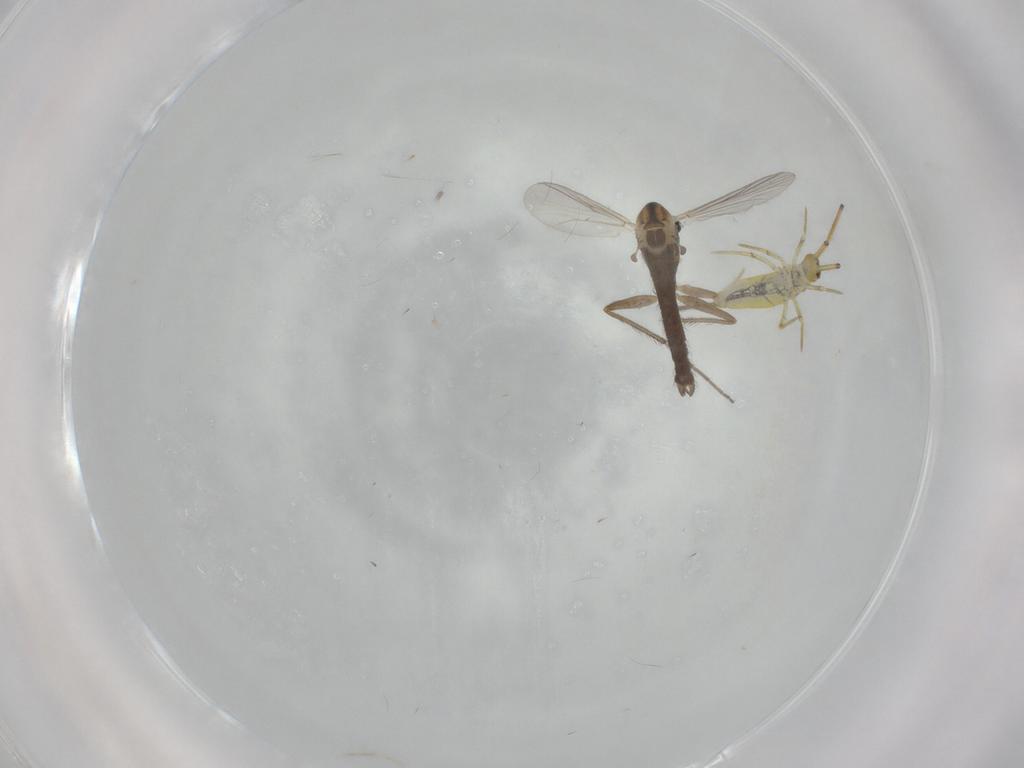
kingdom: Animalia
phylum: Arthropoda
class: Insecta
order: Diptera
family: Chironomidae
